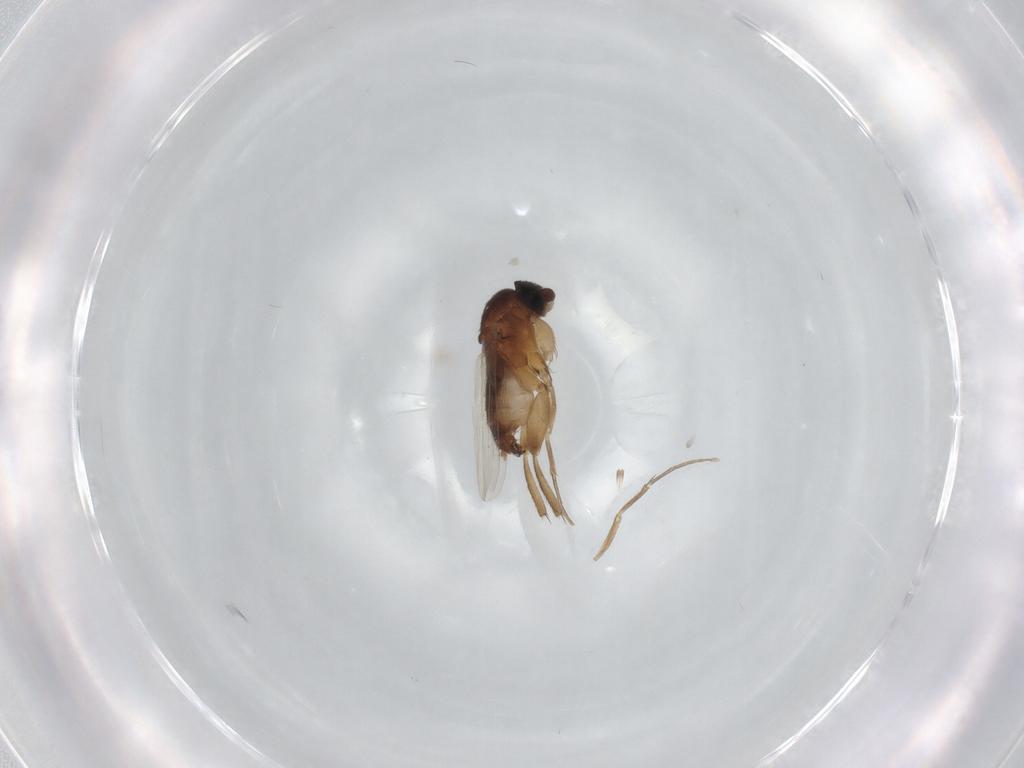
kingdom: Animalia
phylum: Arthropoda
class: Insecta
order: Diptera
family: Phoridae
